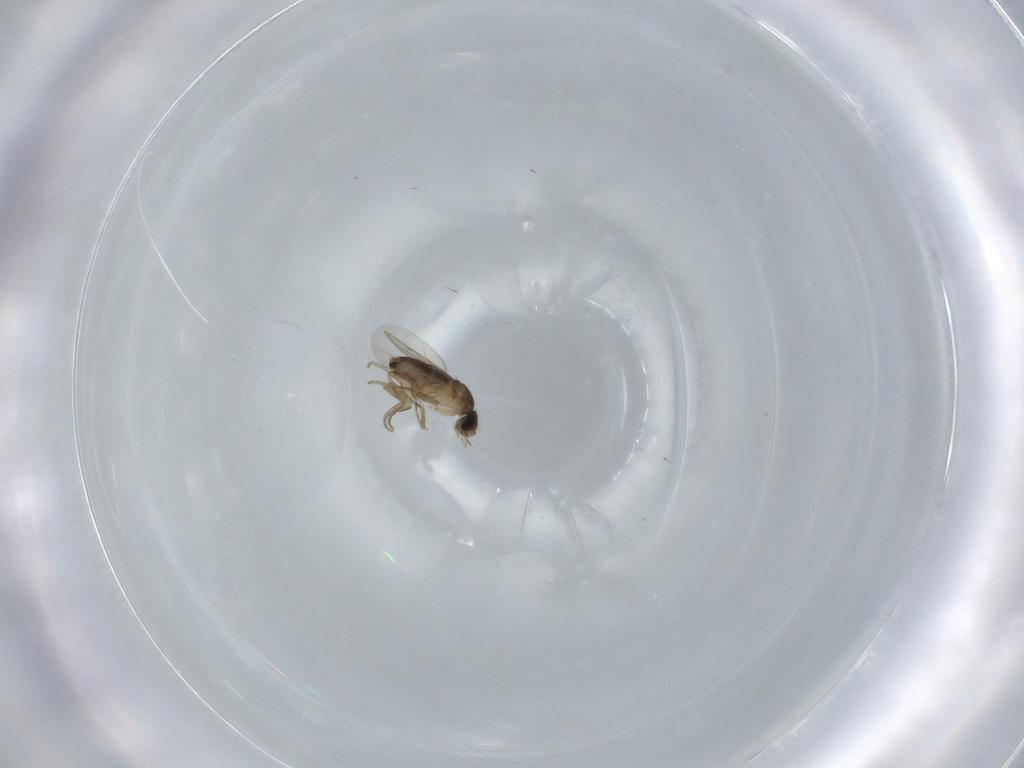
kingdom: Animalia
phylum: Arthropoda
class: Insecta
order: Diptera
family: Phoridae
